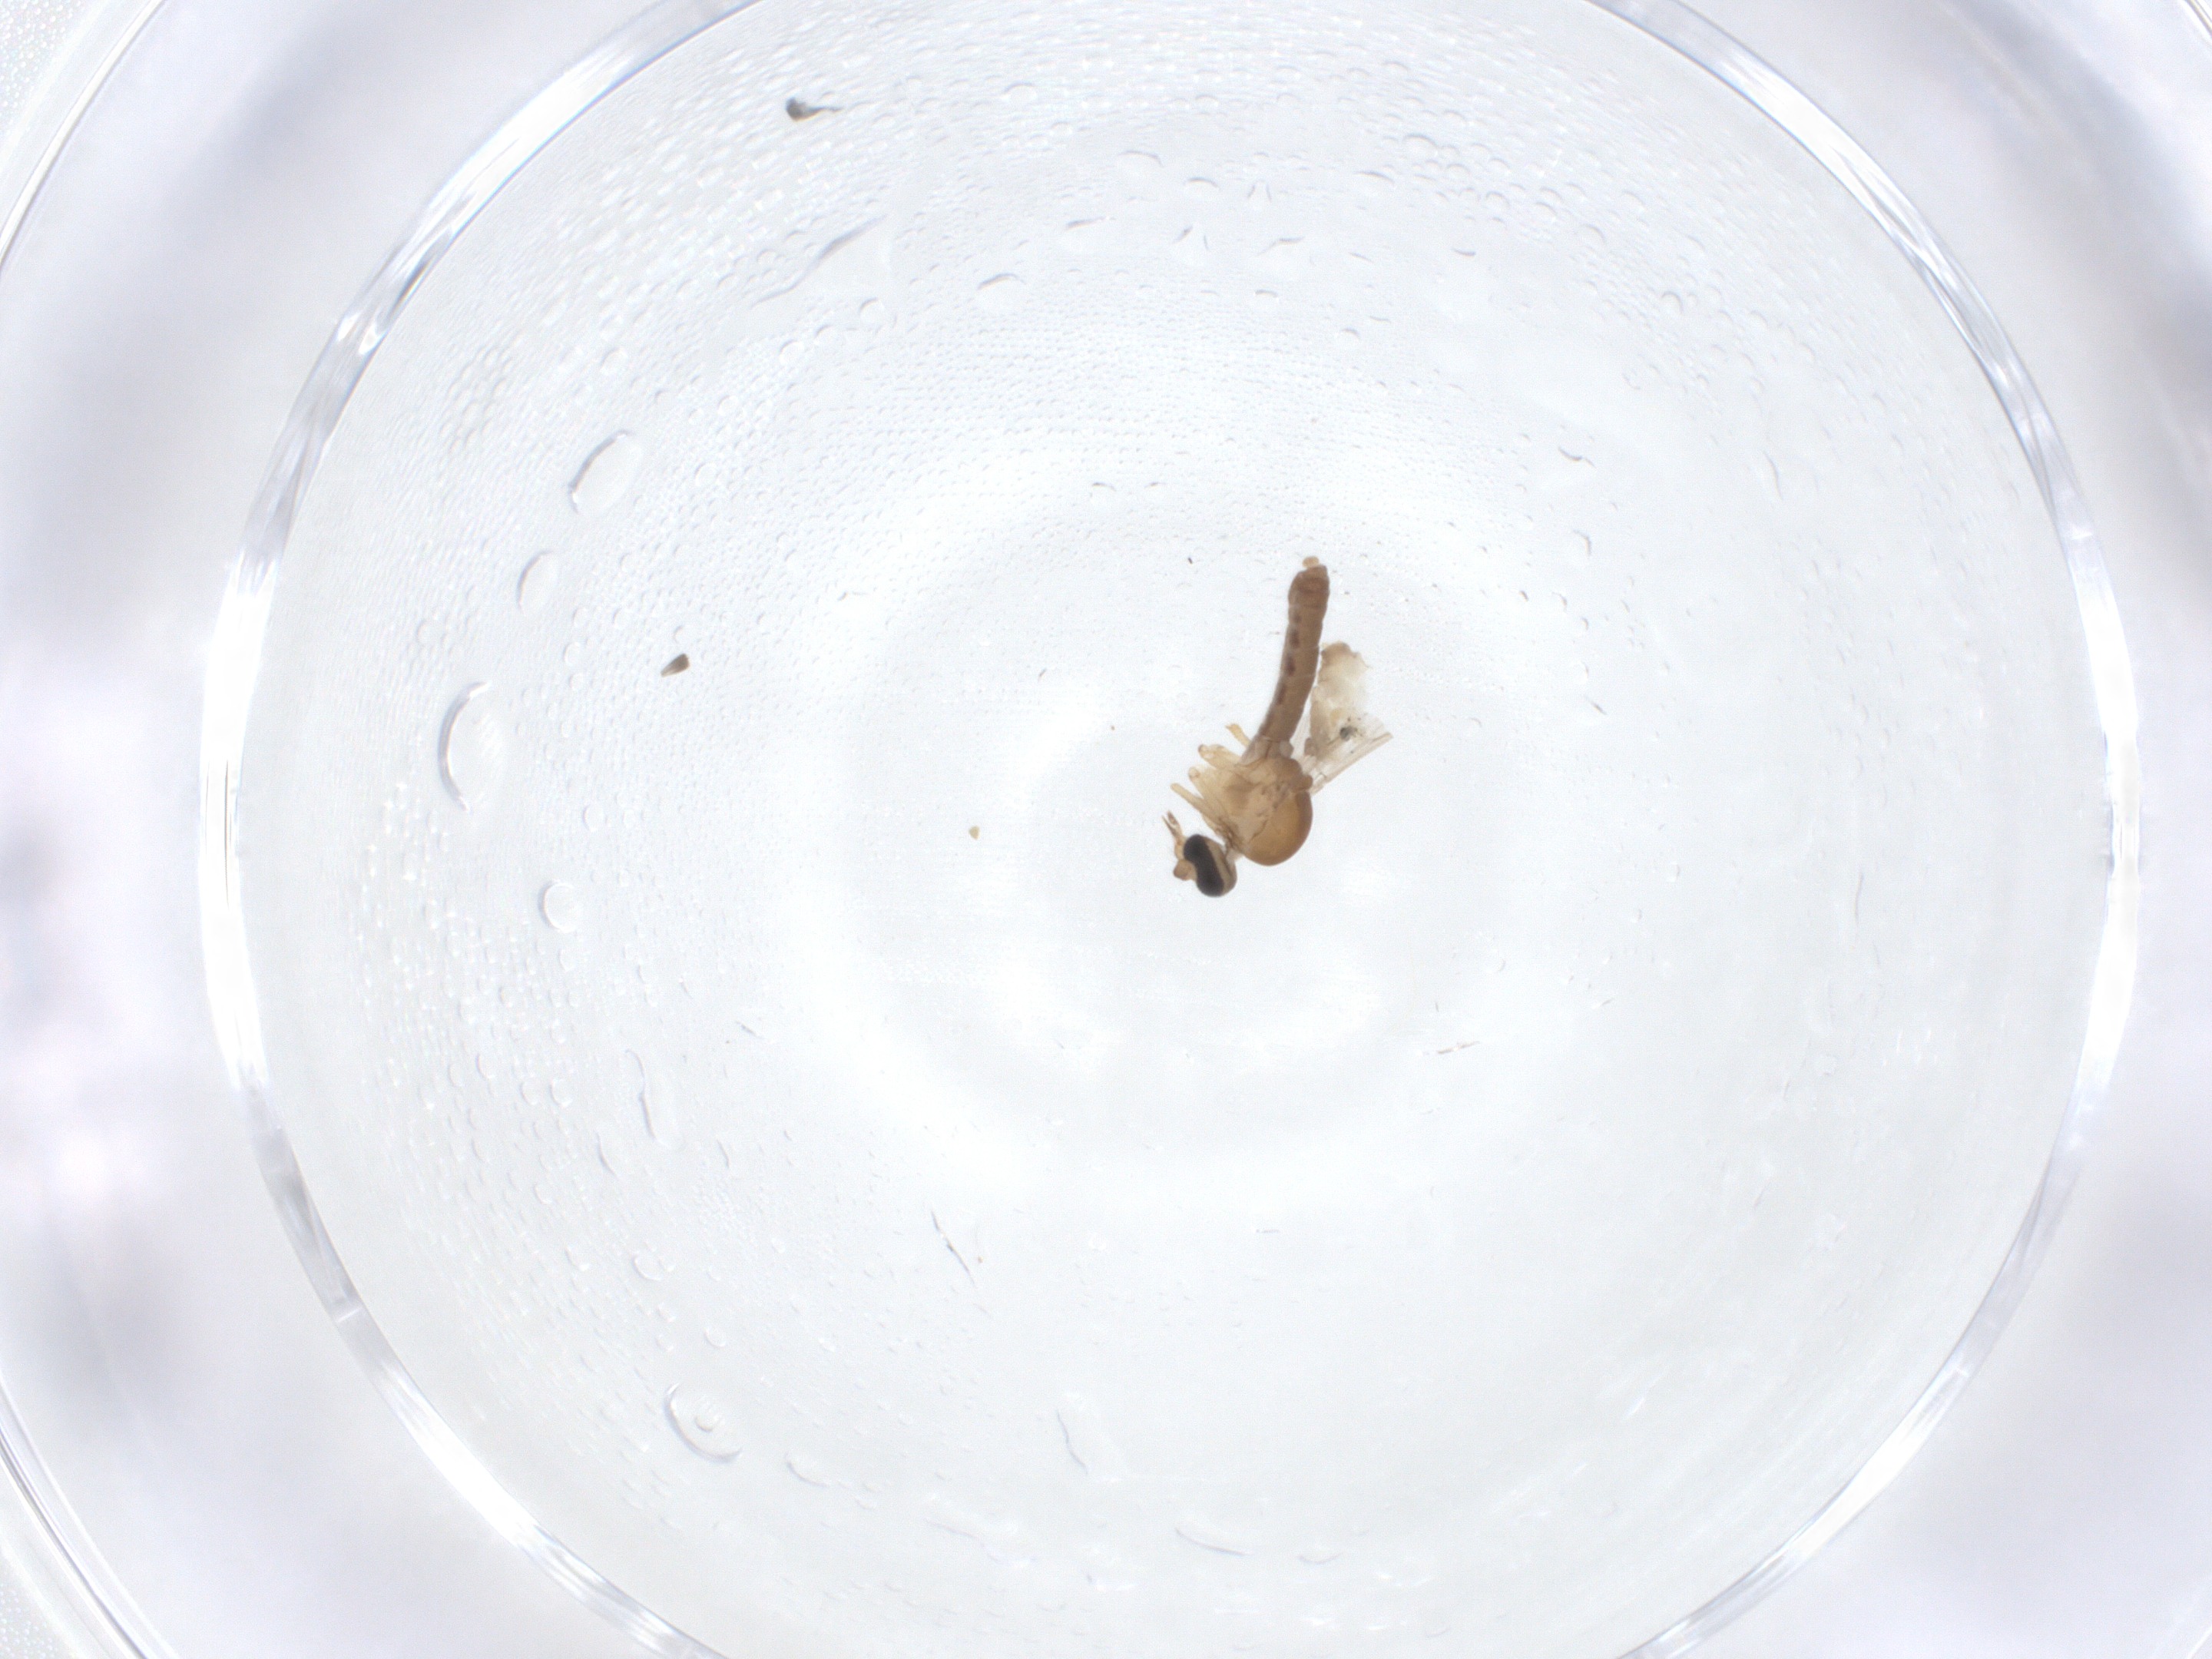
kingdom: Animalia
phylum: Arthropoda
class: Insecta
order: Diptera
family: Ceratopogonidae
